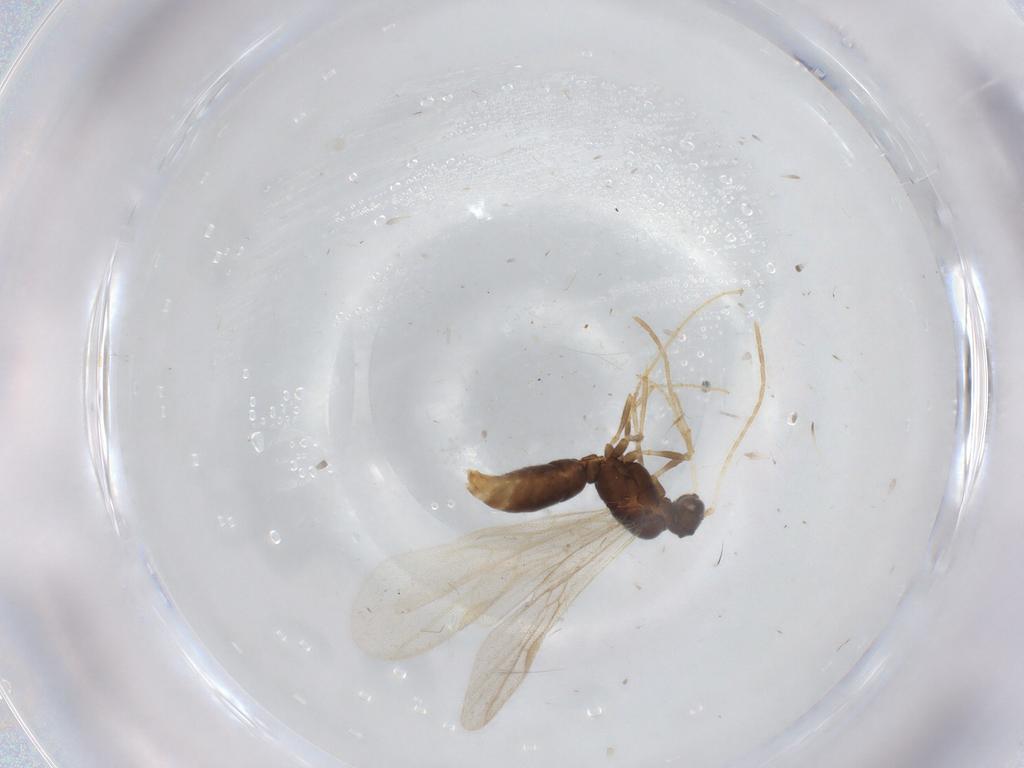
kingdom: Animalia
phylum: Arthropoda
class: Insecta
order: Hymenoptera
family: Formicidae
